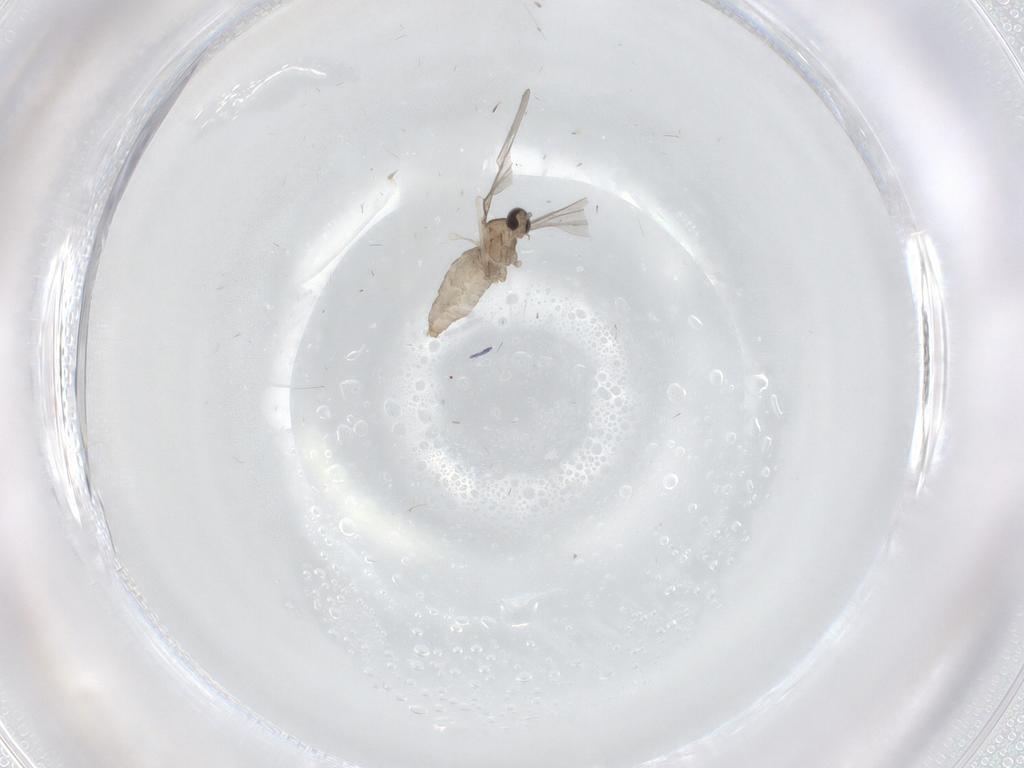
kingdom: Animalia
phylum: Arthropoda
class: Insecta
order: Diptera
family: Cecidomyiidae
